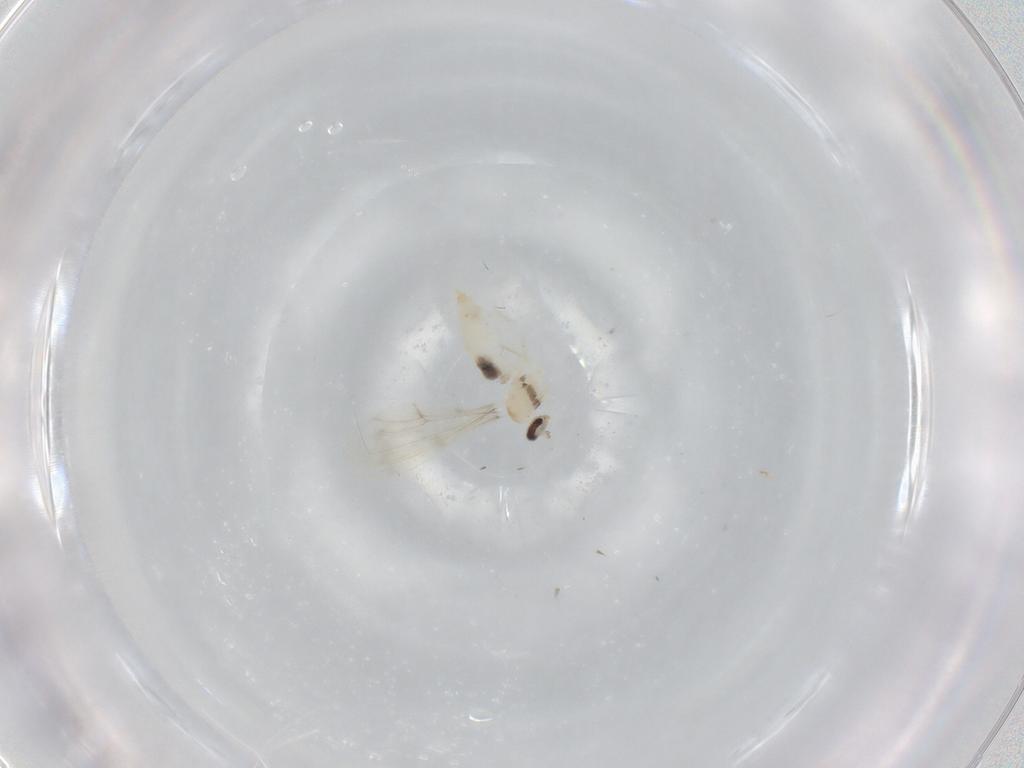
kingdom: Animalia
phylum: Arthropoda
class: Insecta
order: Diptera
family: Cecidomyiidae
